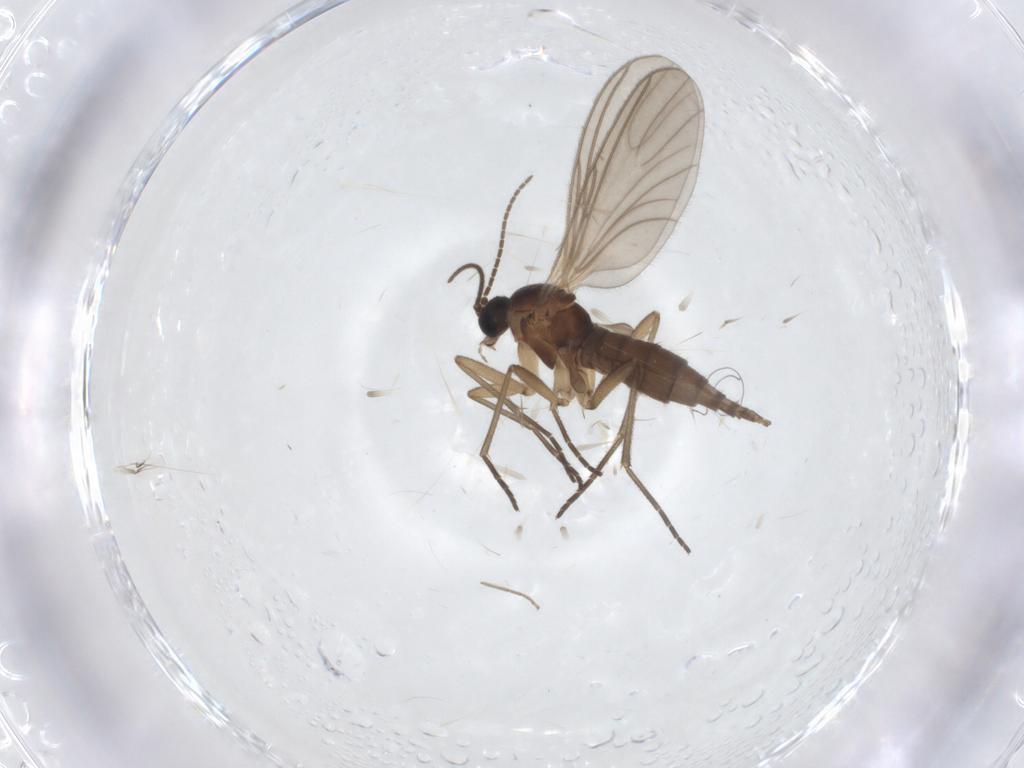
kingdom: Animalia
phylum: Arthropoda
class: Insecta
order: Diptera
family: Sciaridae
